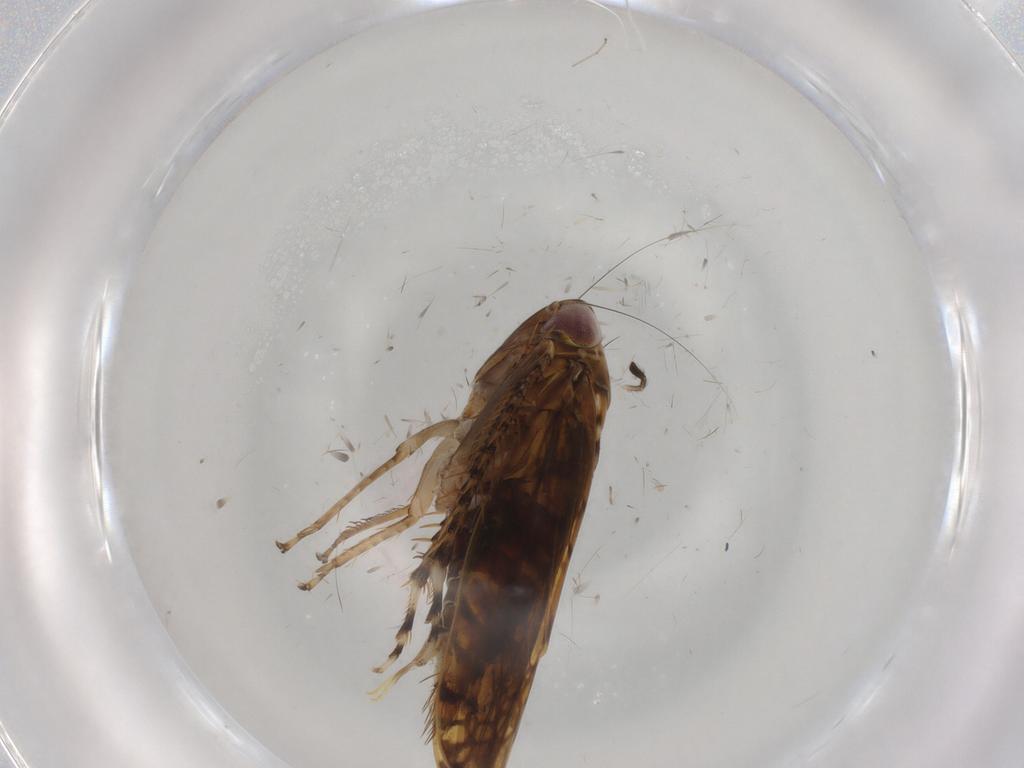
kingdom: Animalia
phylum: Arthropoda
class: Insecta
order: Hemiptera
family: Cicadellidae
